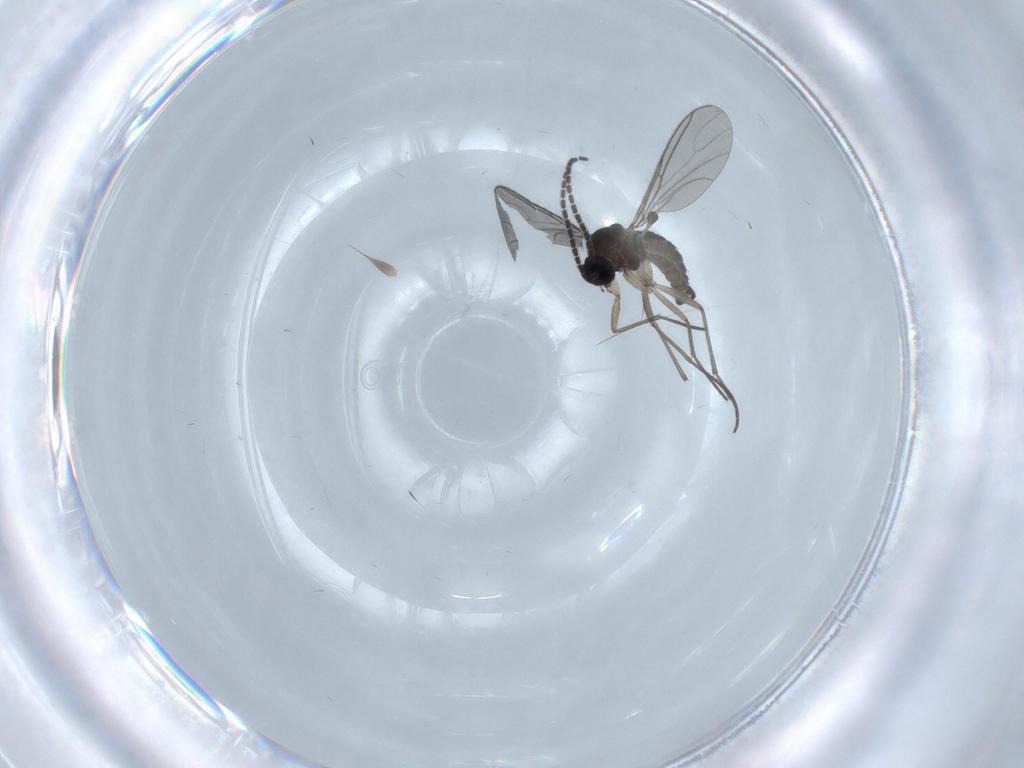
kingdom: Animalia
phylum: Arthropoda
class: Insecta
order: Diptera
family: Sciaridae
